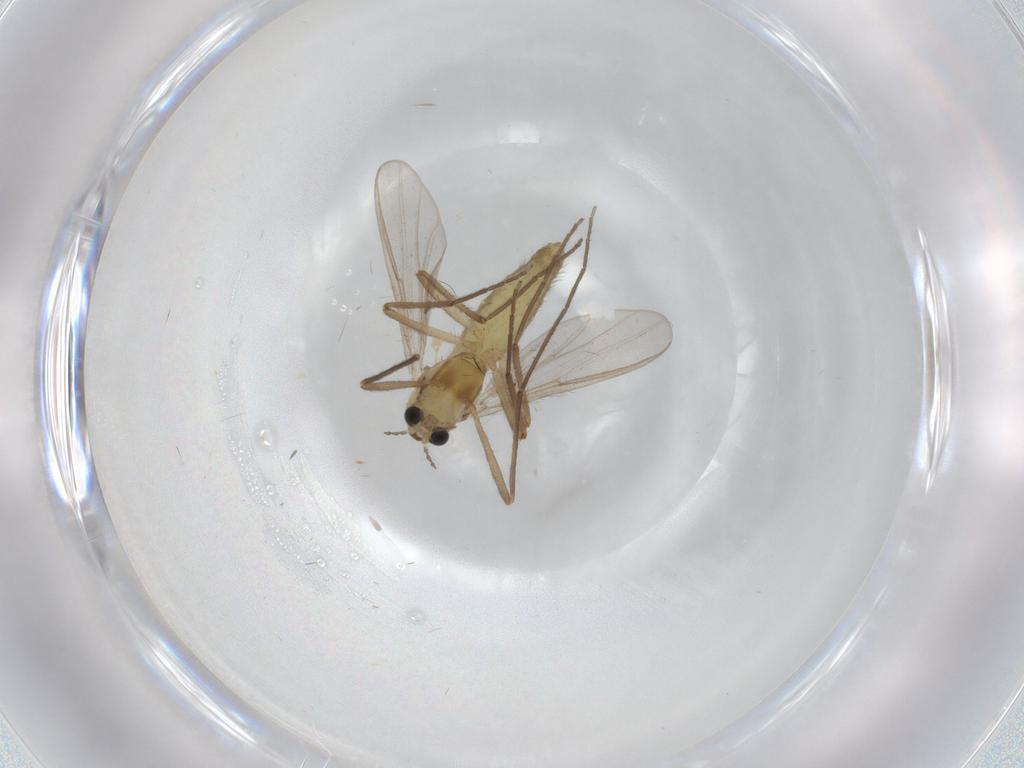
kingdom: Animalia
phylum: Arthropoda
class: Insecta
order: Diptera
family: Chironomidae
